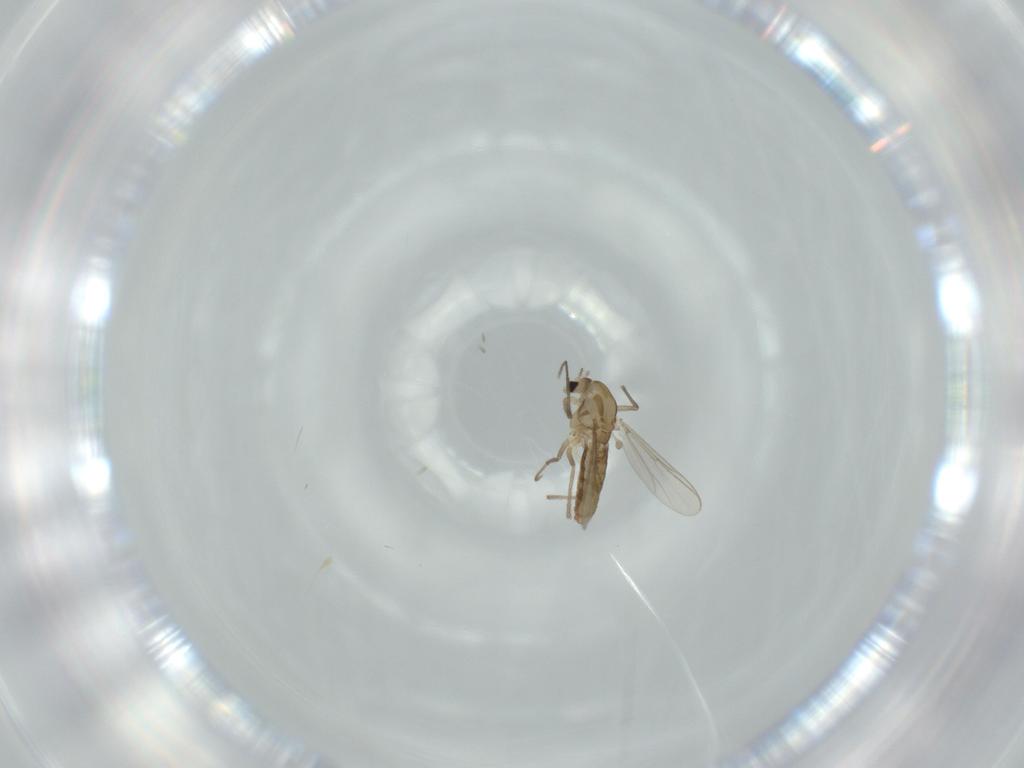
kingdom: Animalia
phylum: Arthropoda
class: Insecta
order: Diptera
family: Chironomidae
